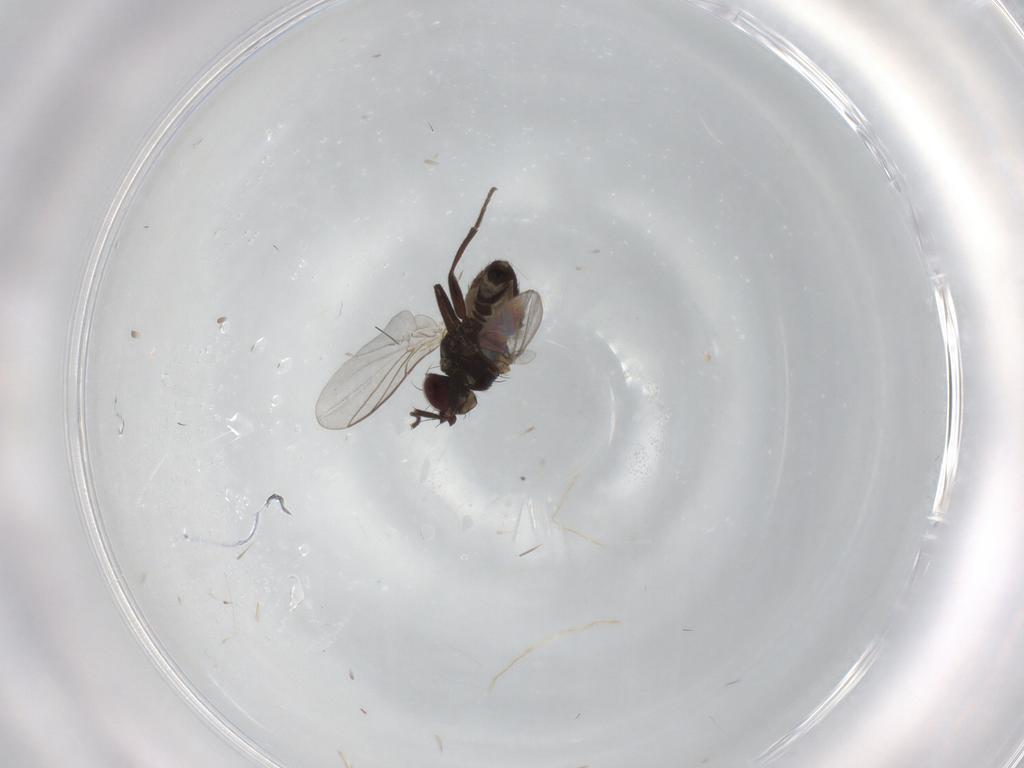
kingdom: Animalia
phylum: Arthropoda
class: Insecta
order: Diptera
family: Cecidomyiidae
